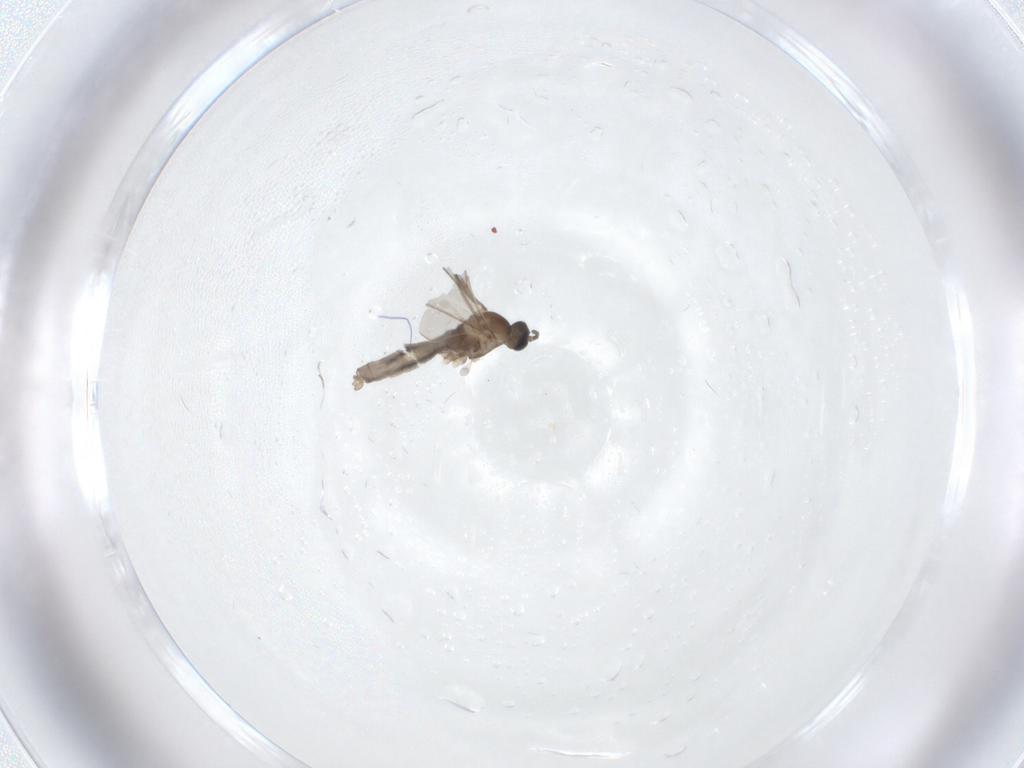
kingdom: Animalia
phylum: Arthropoda
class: Insecta
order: Diptera
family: Cecidomyiidae
